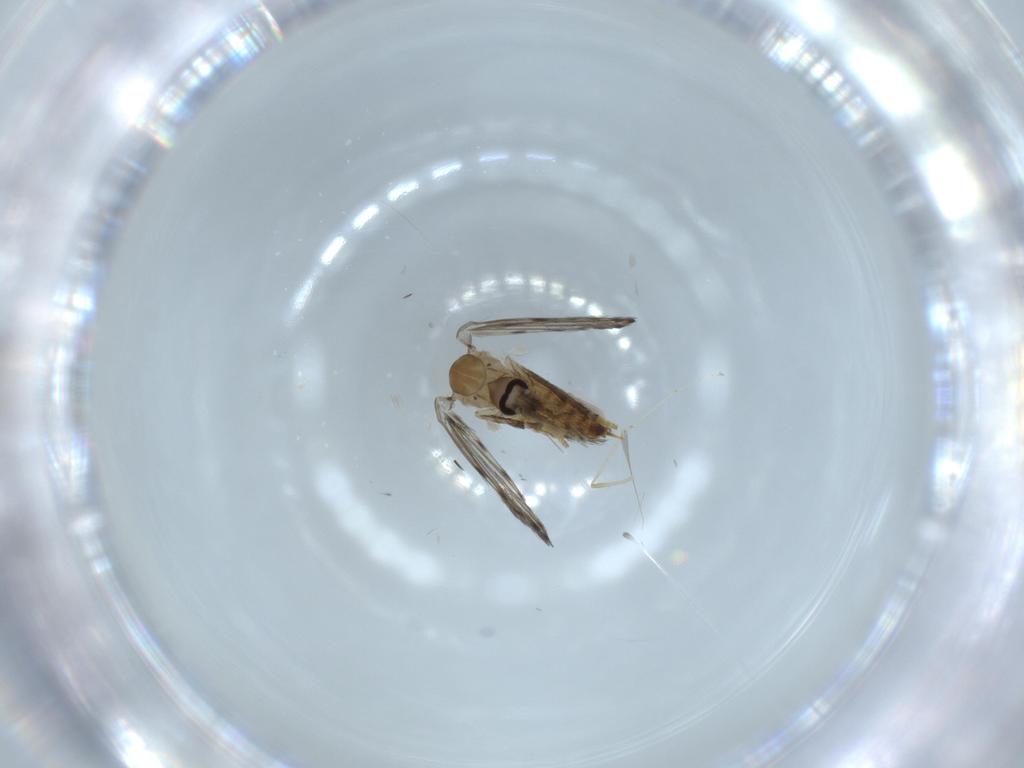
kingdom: Animalia
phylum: Arthropoda
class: Insecta
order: Diptera
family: Psychodidae
